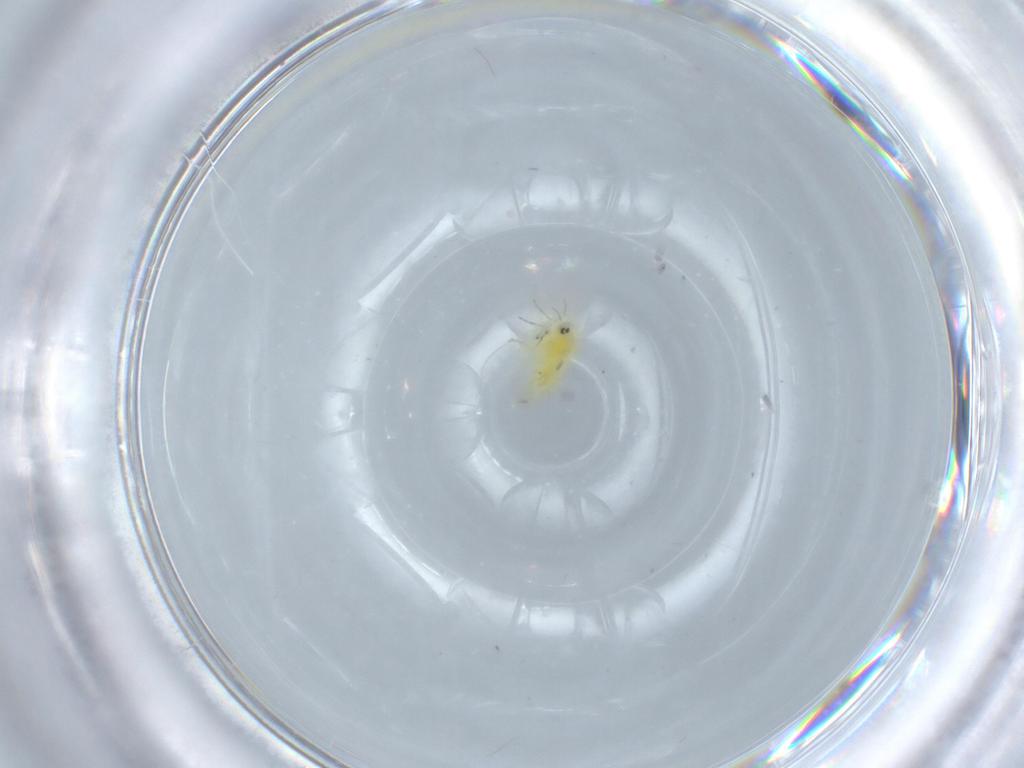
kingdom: Animalia
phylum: Arthropoda
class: Insecta
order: Hemiptera
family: Aleyrodidae
